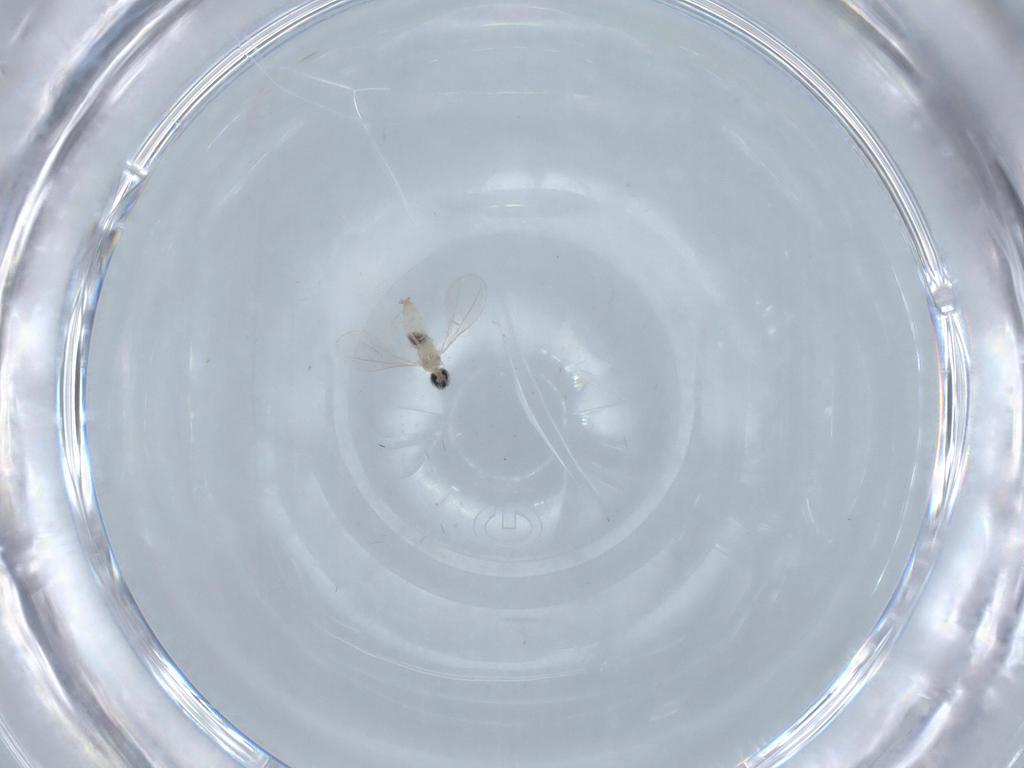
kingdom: Animalia
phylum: Arthropoda
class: Insecta
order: Diptera
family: Cecidomyiidae
